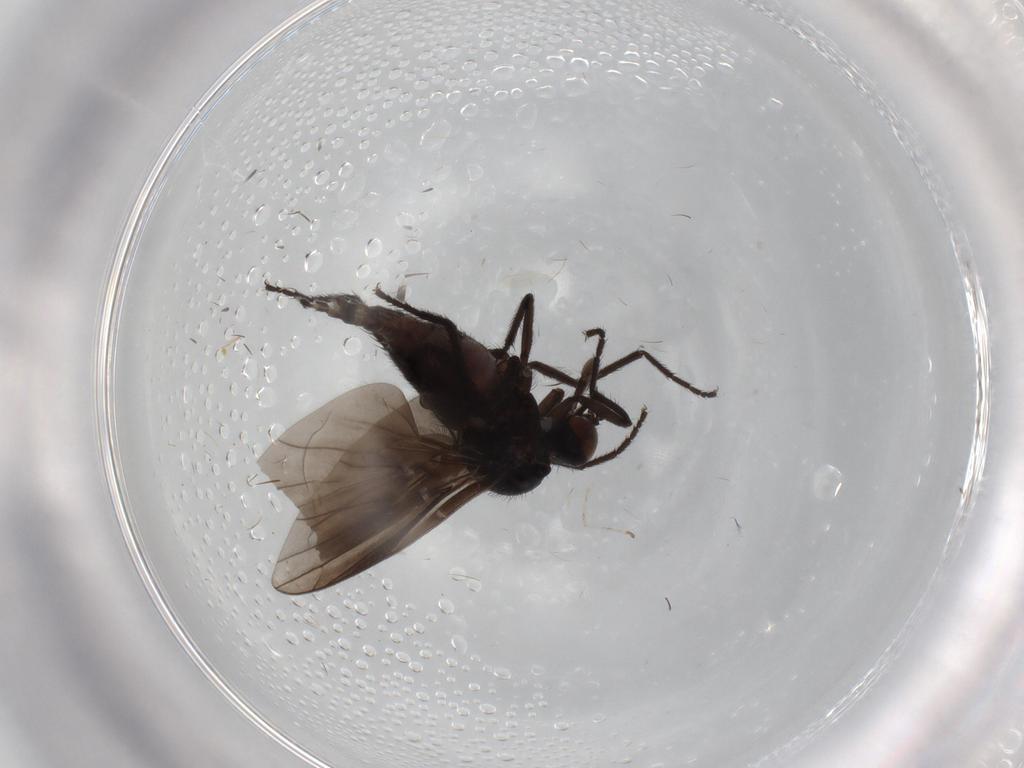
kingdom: Animalia
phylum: Arthropoda
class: Insecta
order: Diptera
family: Empididae
